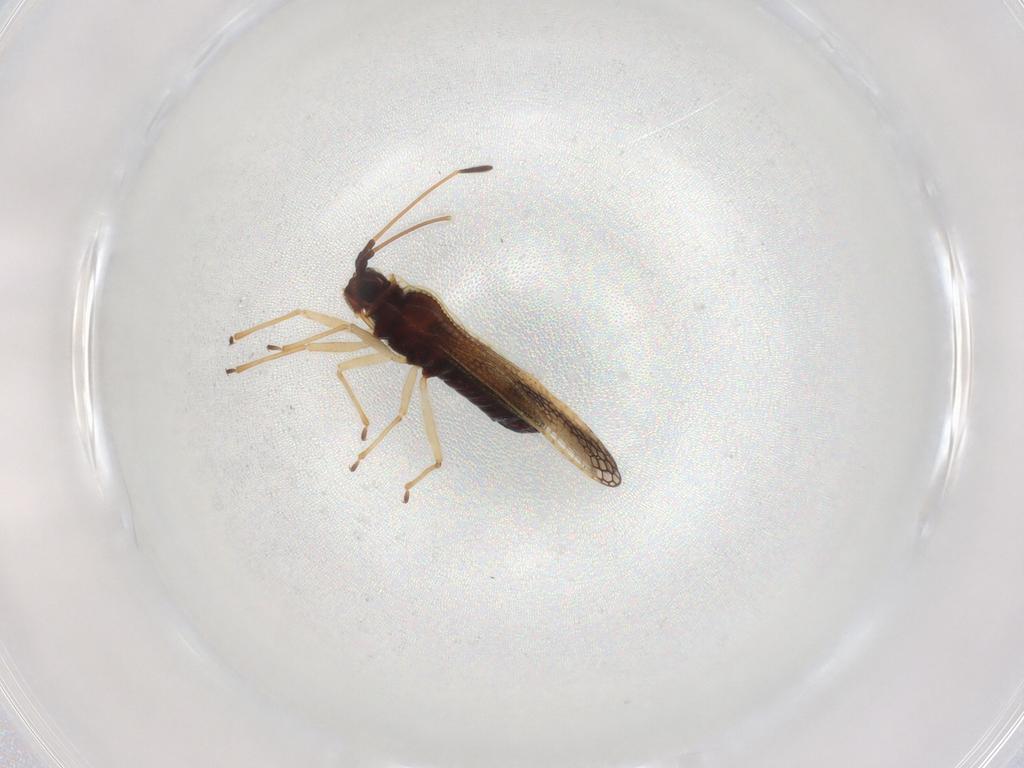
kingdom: Animalia
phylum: Arthropoda
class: Insecta
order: Hemiptera
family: Tingidae
